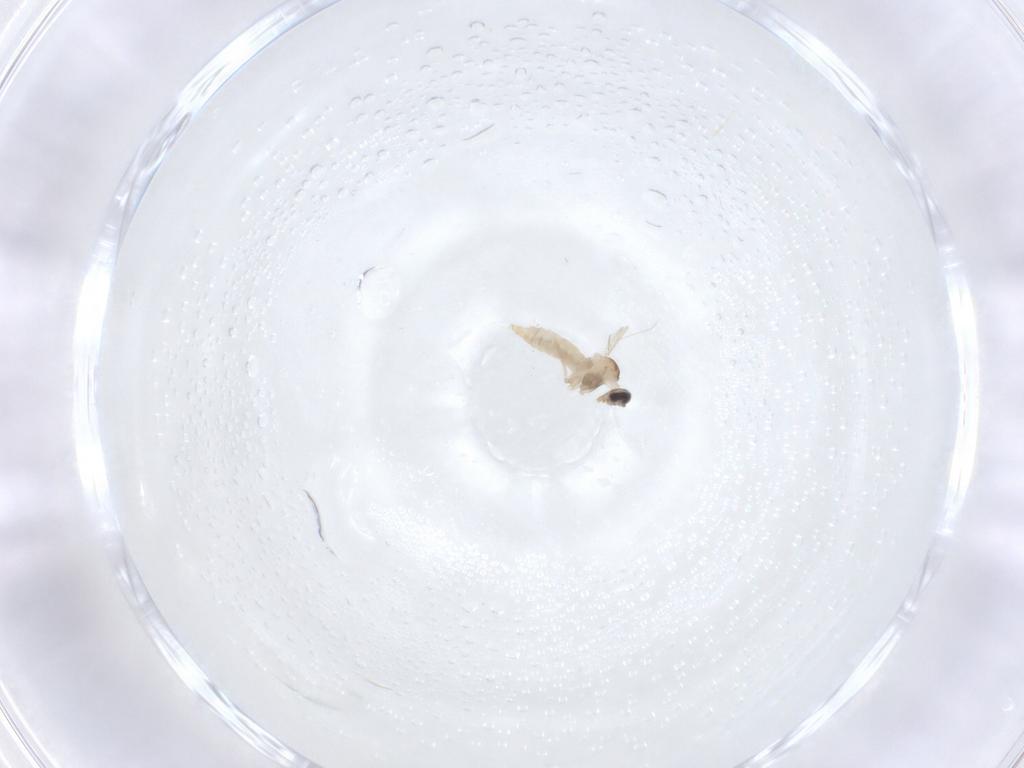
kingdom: Animalia
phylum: Arthropoda
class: Insecta
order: Diptera
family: Cecidomyiidae
